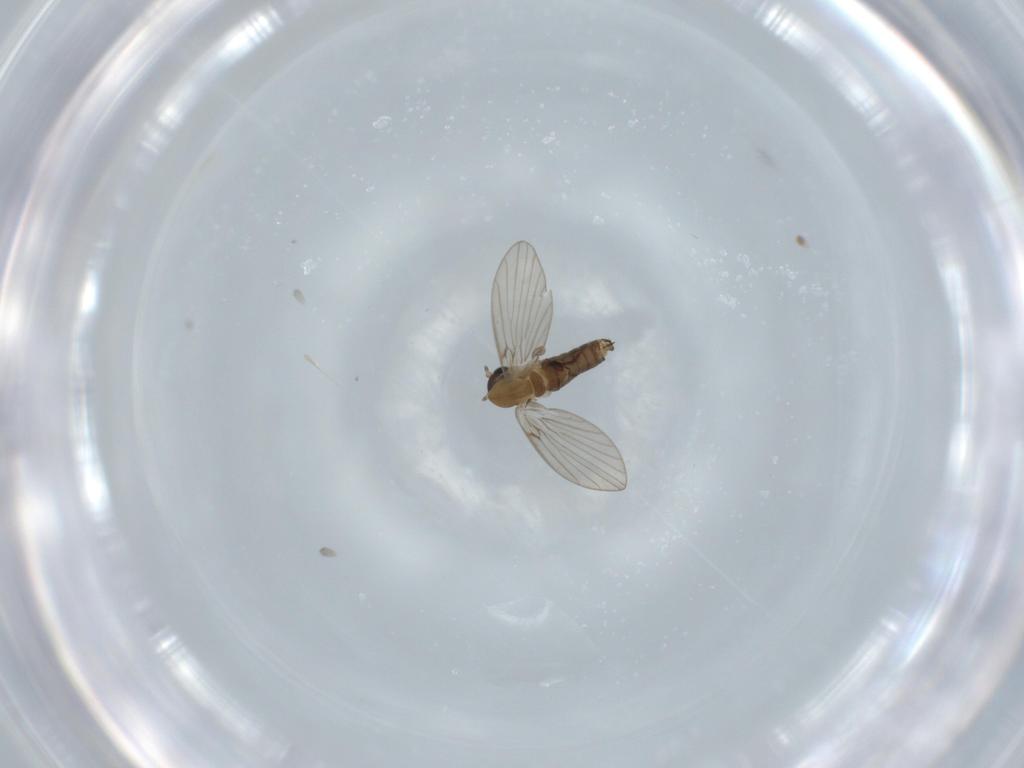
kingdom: Animalia
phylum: Arthropoda
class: Insecta
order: Diptera
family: Psychodidae
